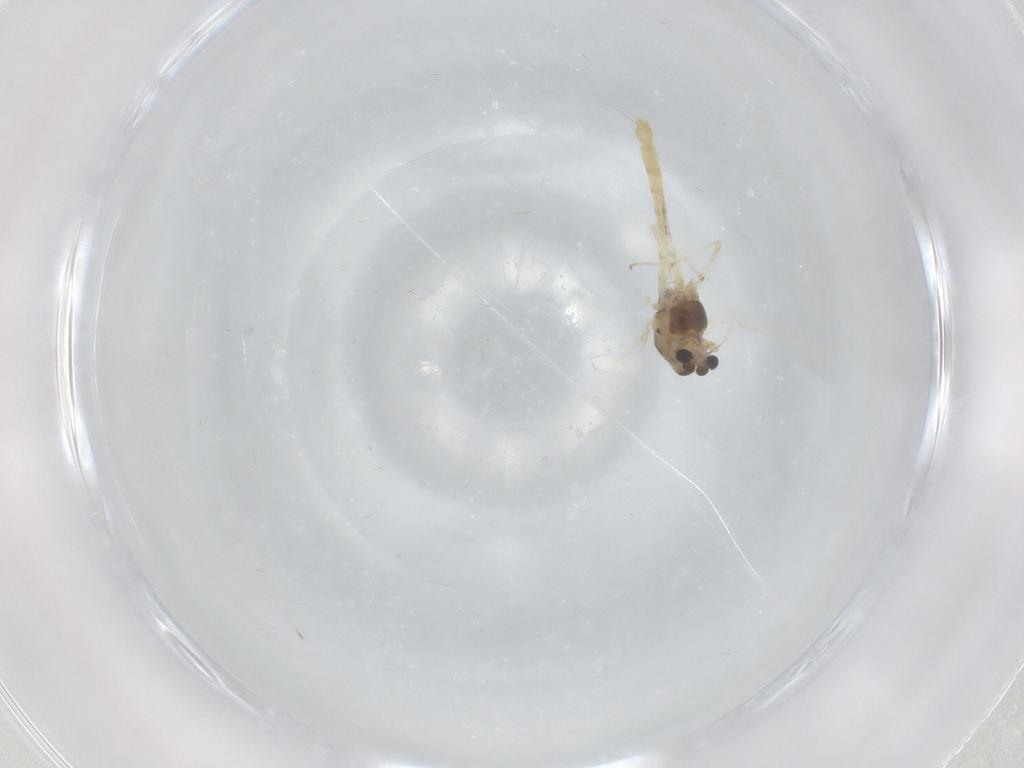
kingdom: Animalia
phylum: Arthropoda
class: Insecta
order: Diptera
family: Chironomidae
